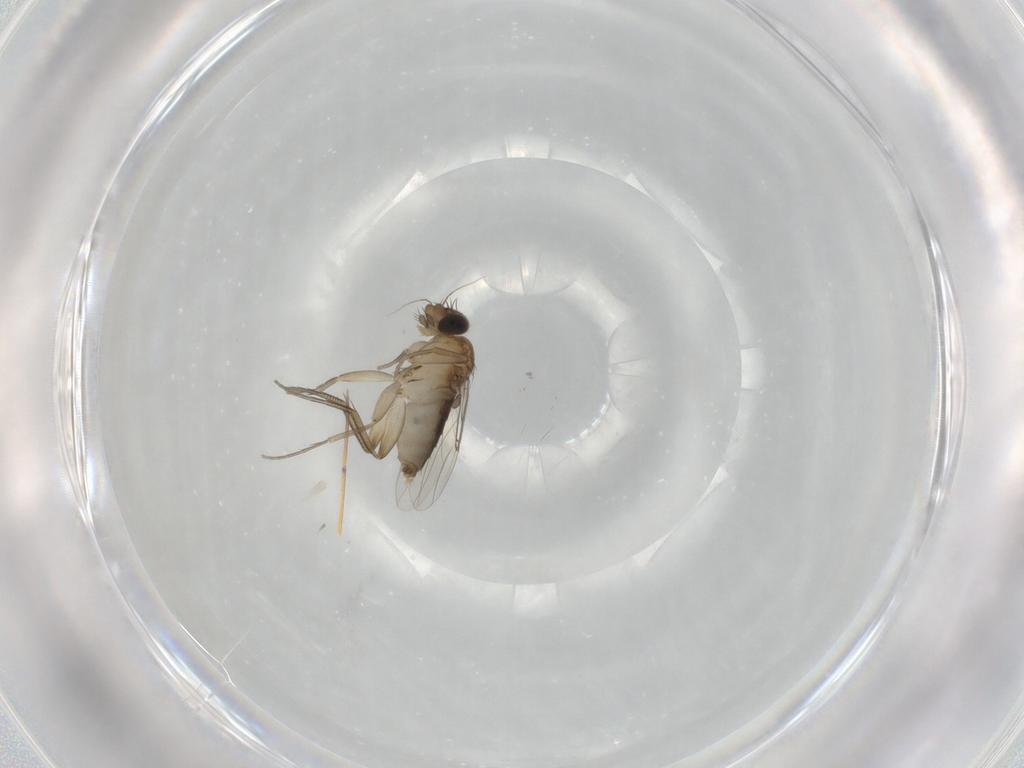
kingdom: Animalia
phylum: Arthropoda
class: Insecta
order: Diptera
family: Phoridae
